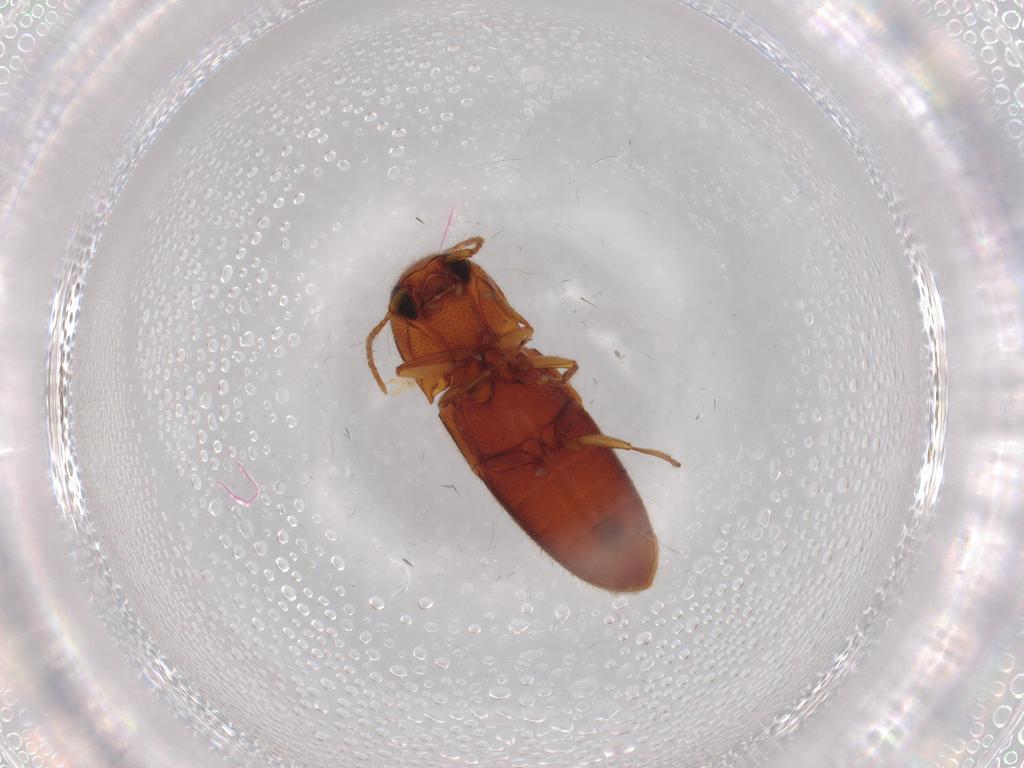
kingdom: Animalia
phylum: Arthropoda
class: Insecta
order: Coleoptera
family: Elateridae
